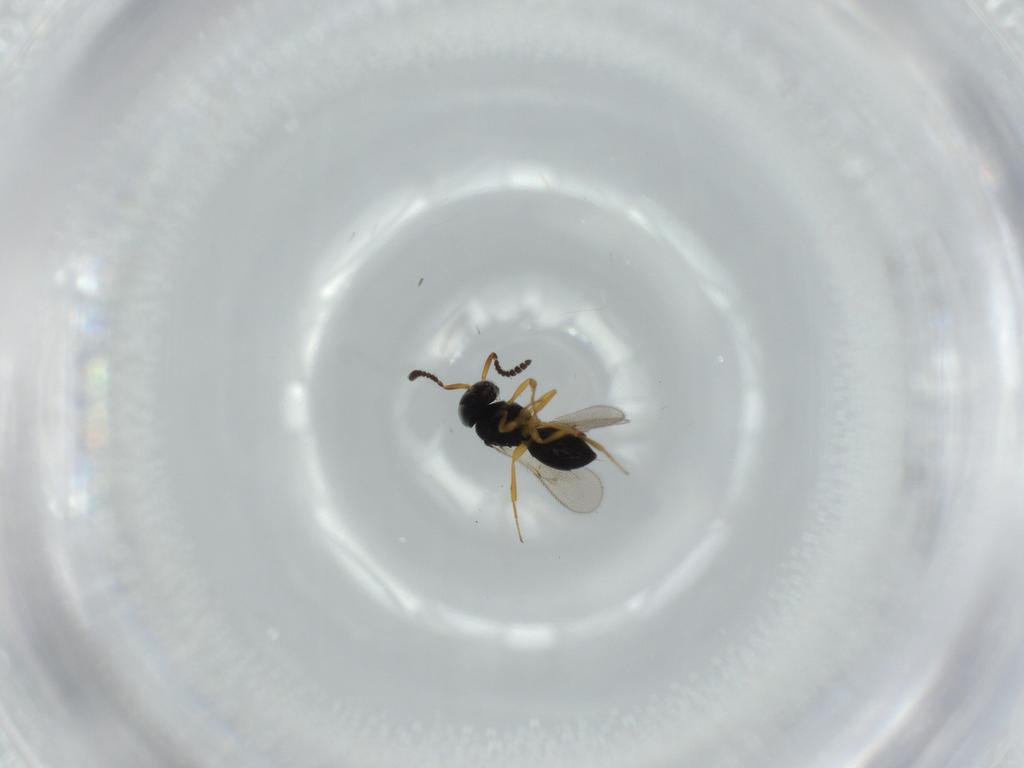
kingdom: Animalia
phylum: Arthropoda
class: Insecta
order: Hymenoptera
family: Scelionidae
